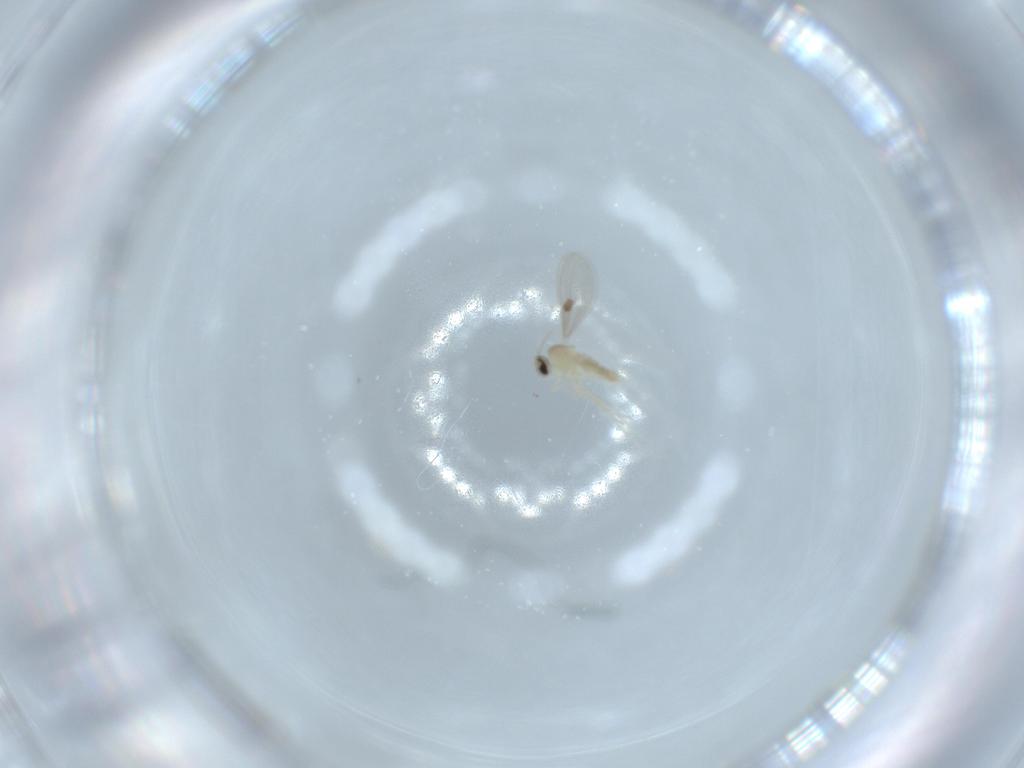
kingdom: Animalia
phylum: Arthropoda
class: Insecta
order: Diptera
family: Cecidomyiidae
